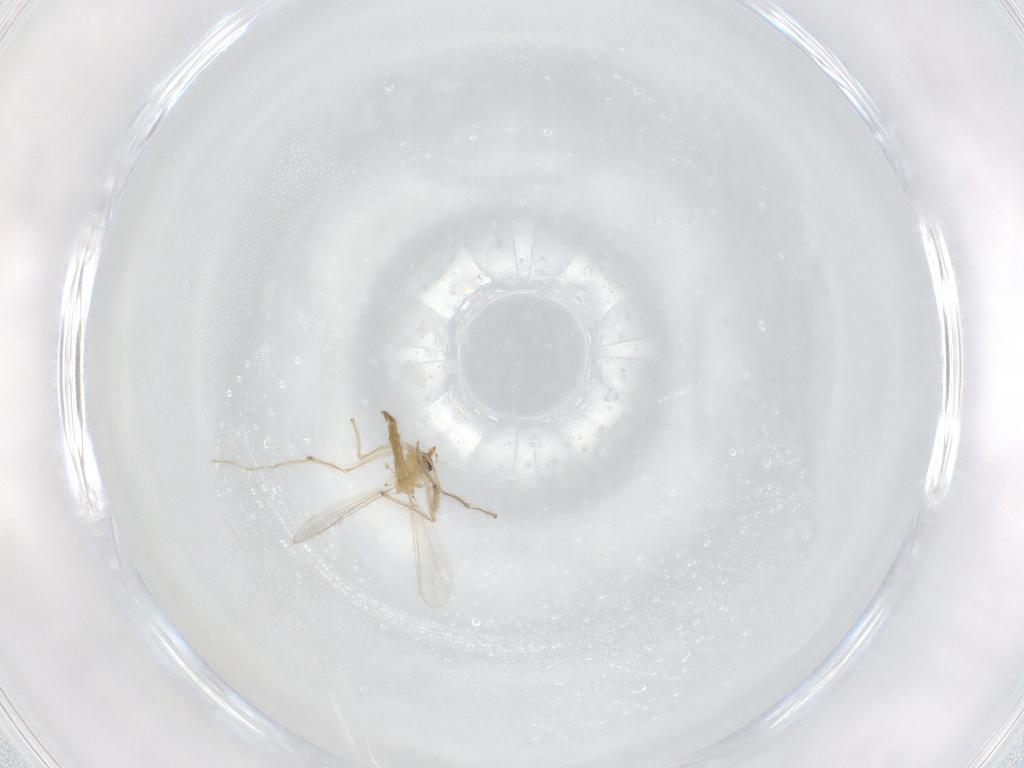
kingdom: Animalia
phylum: Arthropoda
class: Insecta
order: Diptera
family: Chironomidae
